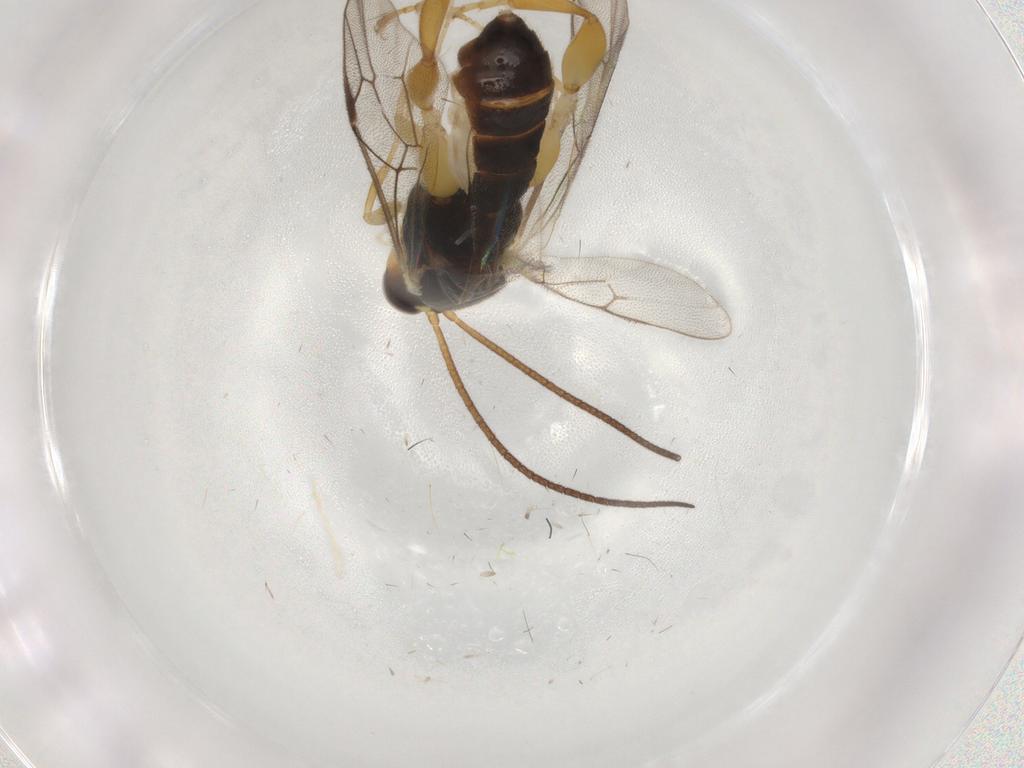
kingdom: Animalia
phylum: Arthropoda
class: Insecta
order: Hymenoptera
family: Ichneumonidae
